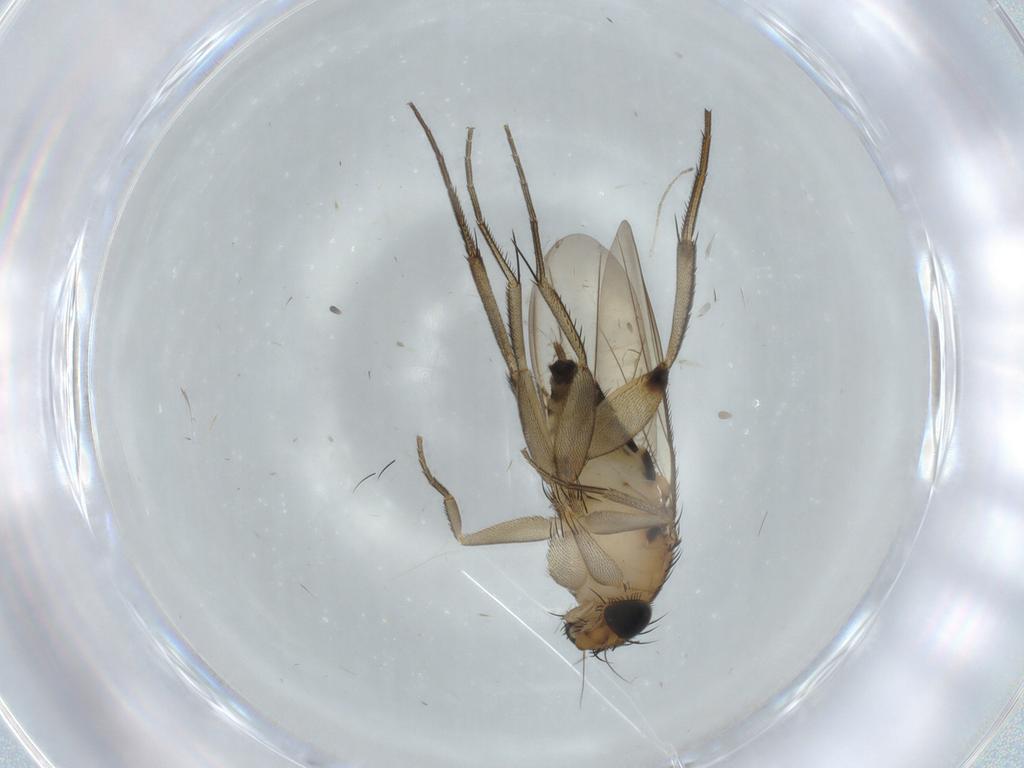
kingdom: Animalia
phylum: Arthropoda
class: Insecta
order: Diptera
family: Phoridae
